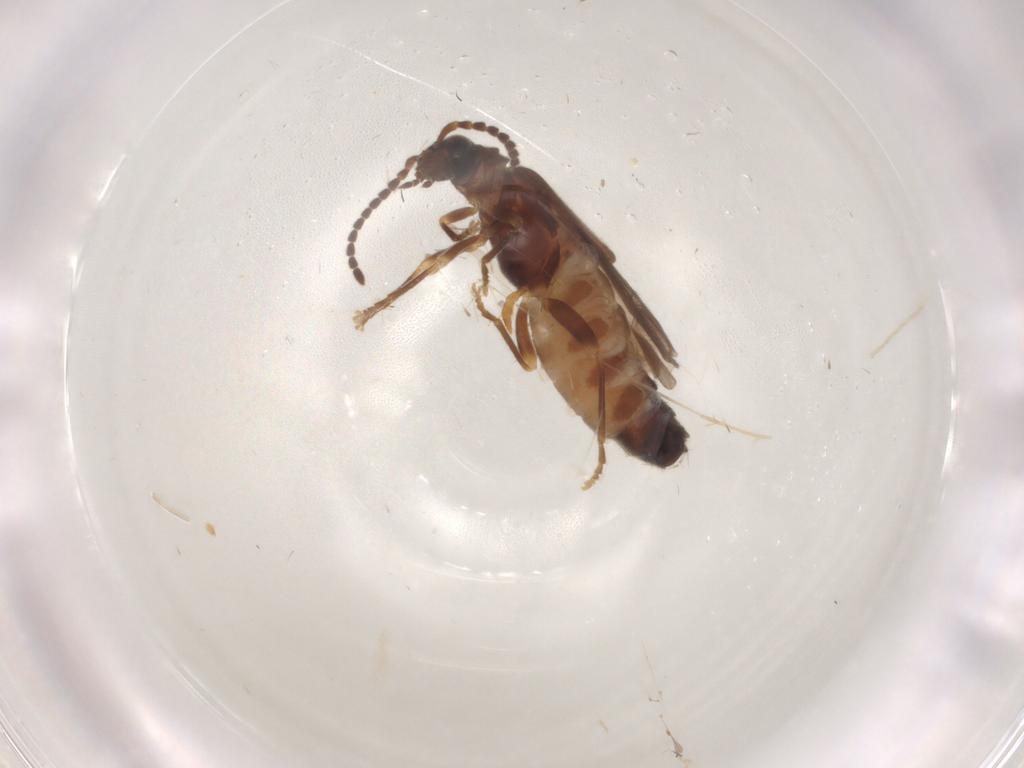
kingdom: Animalia
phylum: Arthropoda
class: Insecta
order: Coleoptera
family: Cantharidae
